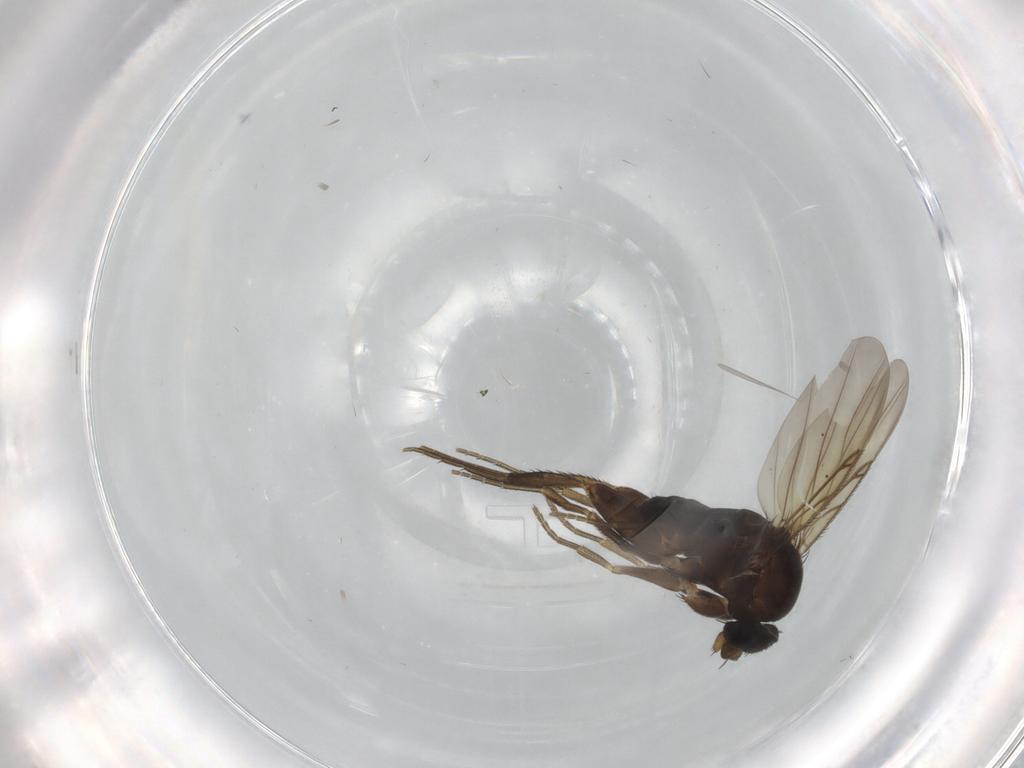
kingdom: Animalia
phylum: Arthropoda
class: Insecta
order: Diptera
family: Phoridae
